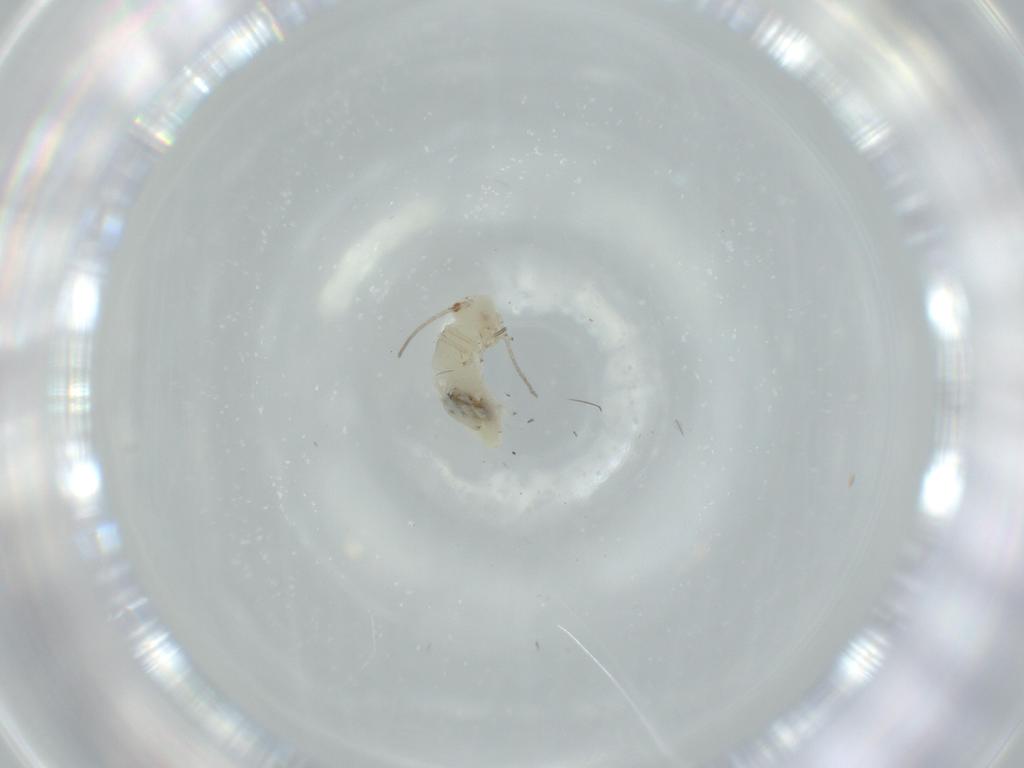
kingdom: Animalia
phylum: Arthropoda
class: Insecta
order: Psocodea
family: Caeciliusidae
